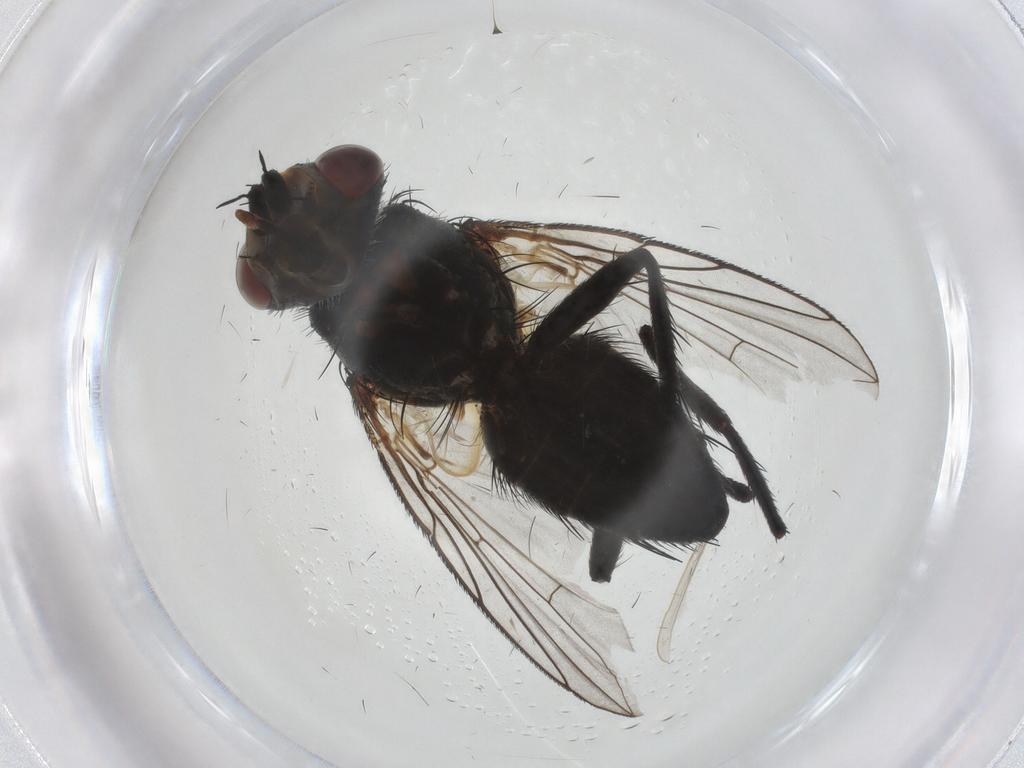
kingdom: Animalia
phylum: Arthropoda
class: Insecta
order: Diptera
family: Tachinidae
